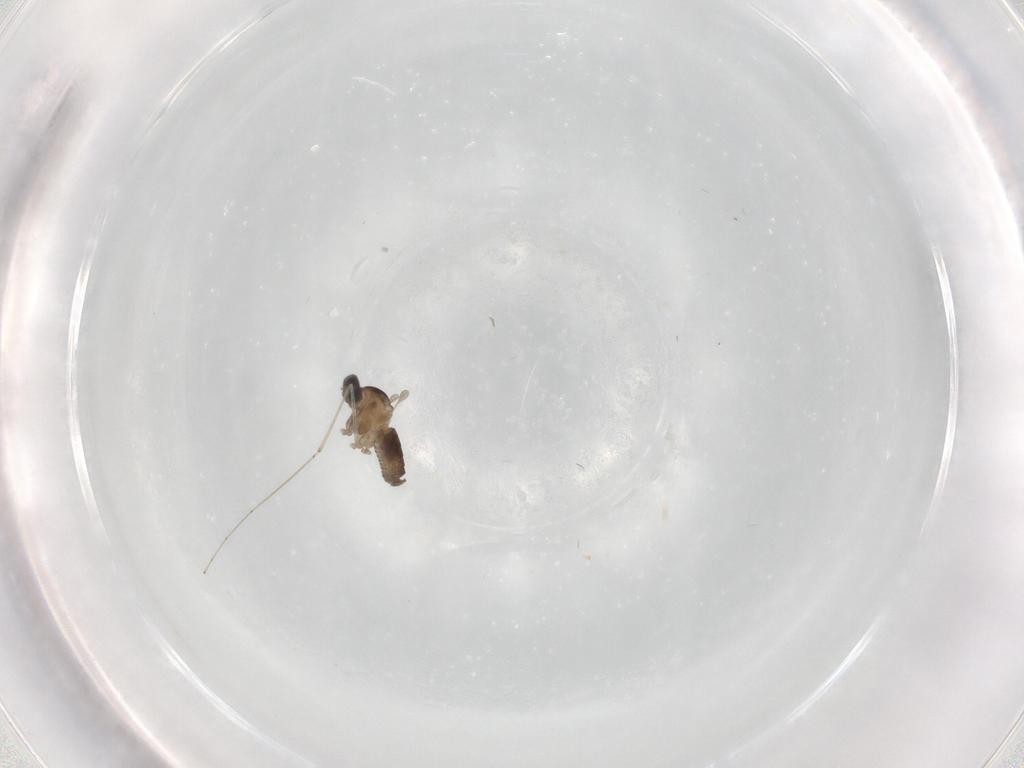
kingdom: Animalia
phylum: Arthropoda
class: Insecta
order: Diptera
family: Cecidomyiidae
